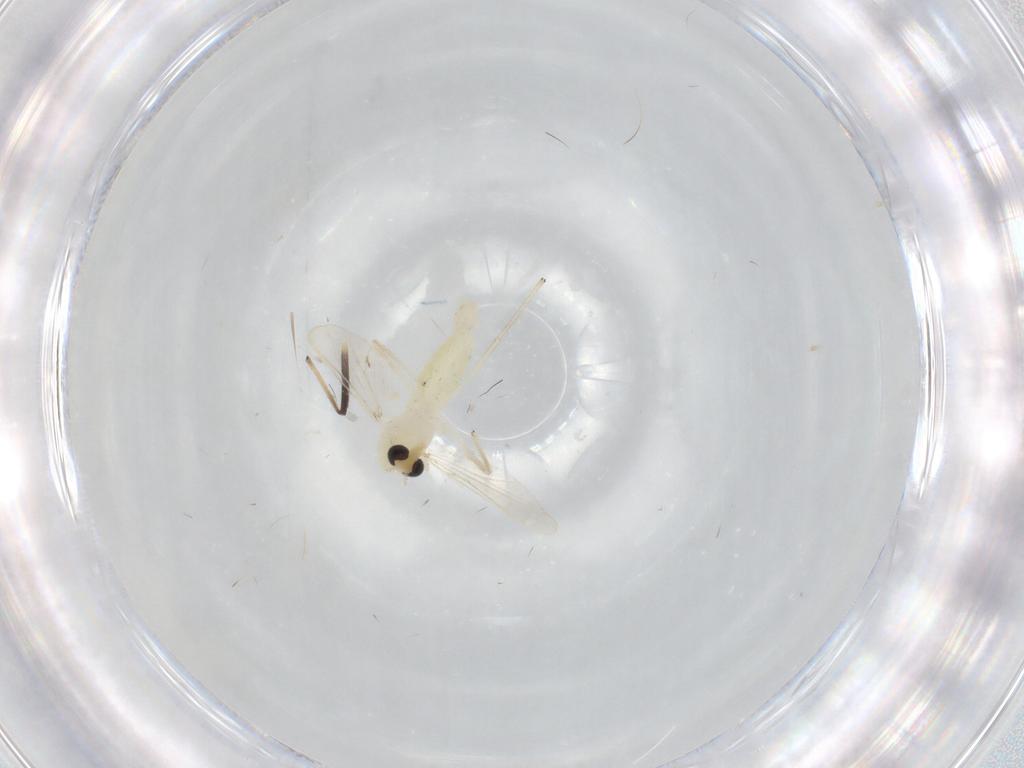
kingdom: Animalia
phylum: Arthropoda
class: Insecta
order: Diptera
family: Chironomidae
